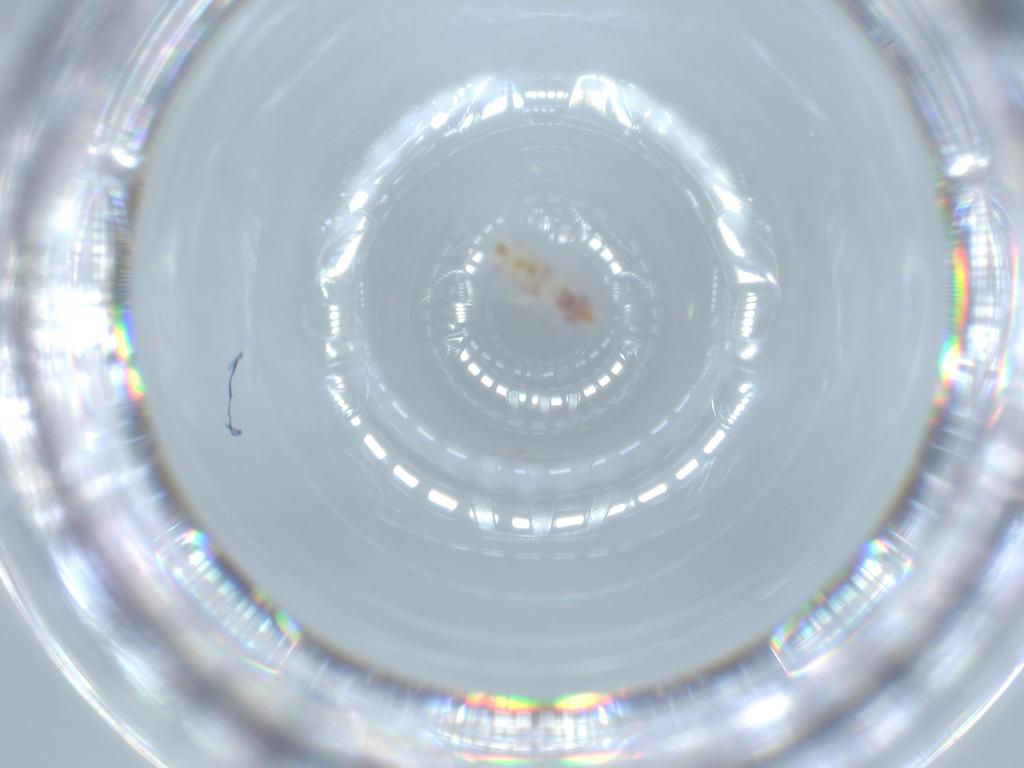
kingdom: Animalia
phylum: Arthropoda
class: Insecta
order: Psocodea
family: Liposcelididae
